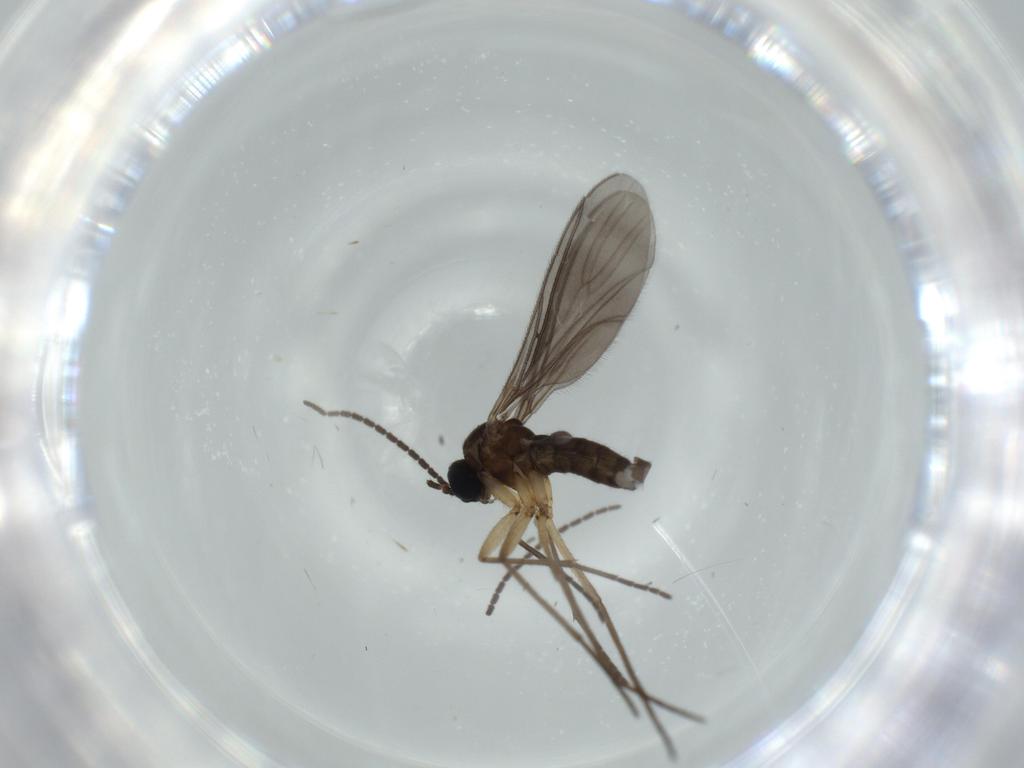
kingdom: Animalia
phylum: Arthropoda
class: Insecta
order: Diptera
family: Sciaridae
